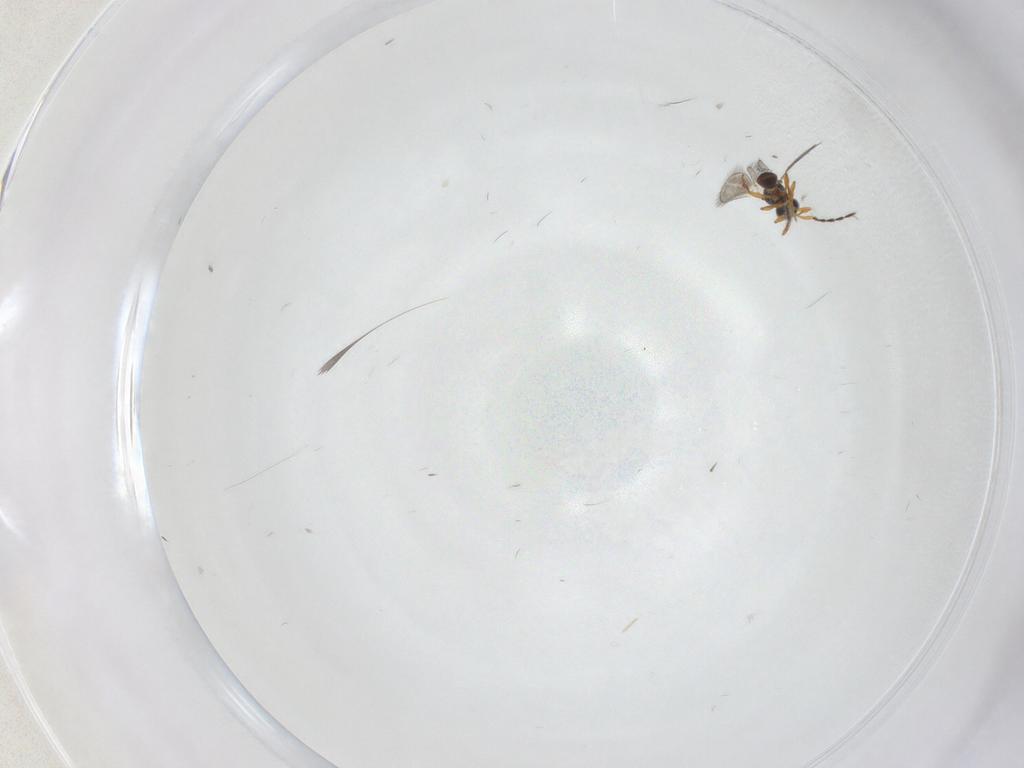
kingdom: Animalia
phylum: Arthropoda
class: Insecta
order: Hymenoptera
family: Platygastridae
